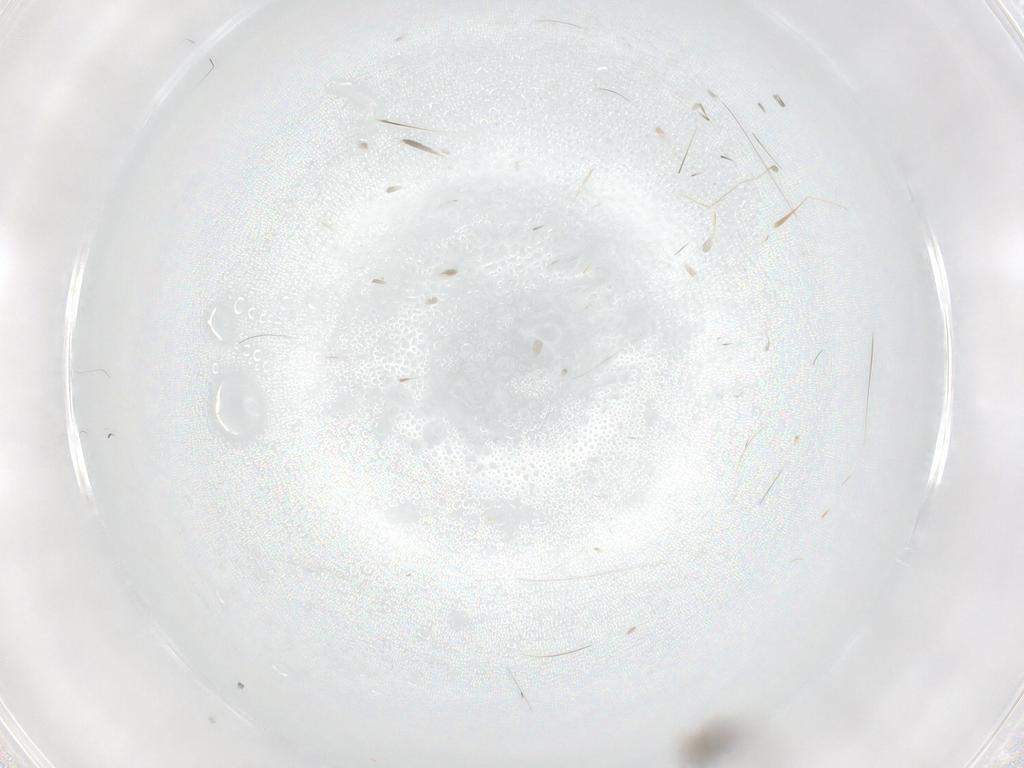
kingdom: Animalia
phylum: Arthropoda
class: Insecta
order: Diptera
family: Cecidomyiidae
